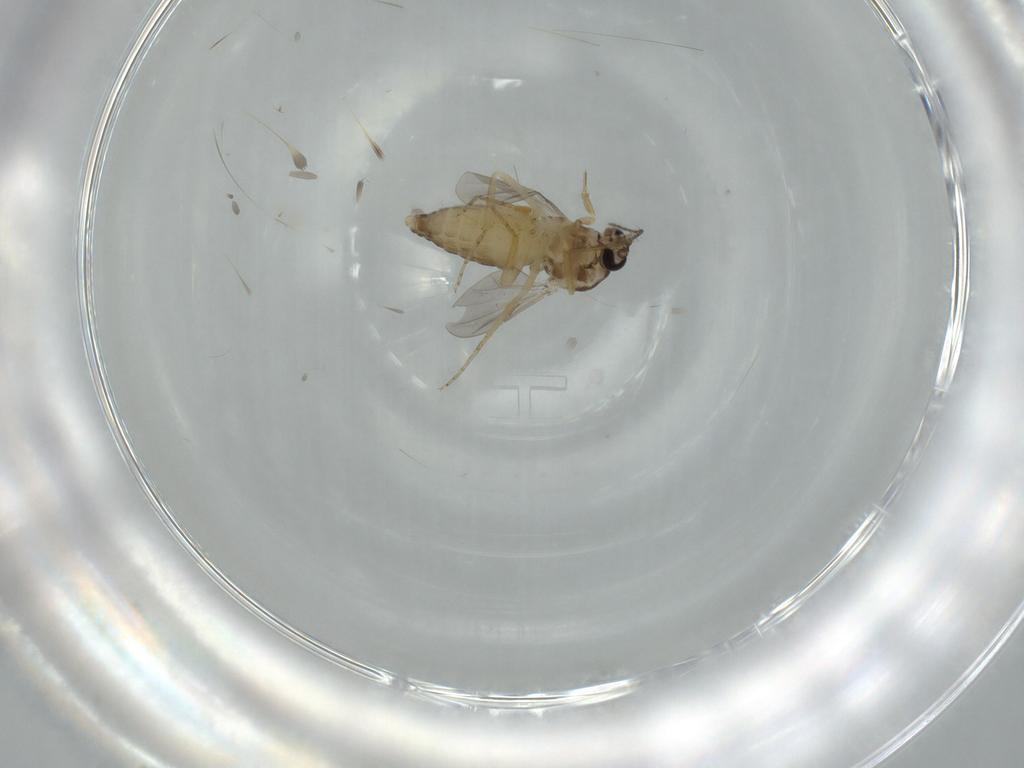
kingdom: Animalia
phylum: Arthropoda
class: Insecta
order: Diptera
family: Ceratopogonidae
